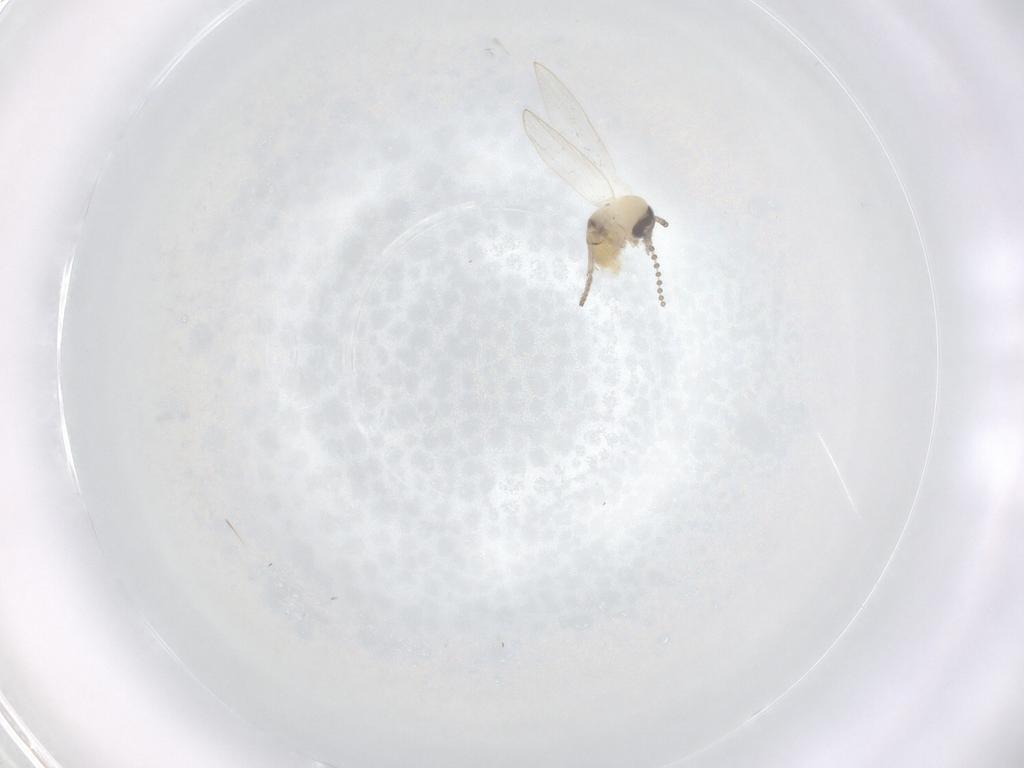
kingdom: Animalia
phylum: Arthropoda
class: Insecta
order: Diptera
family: Psychodidae
